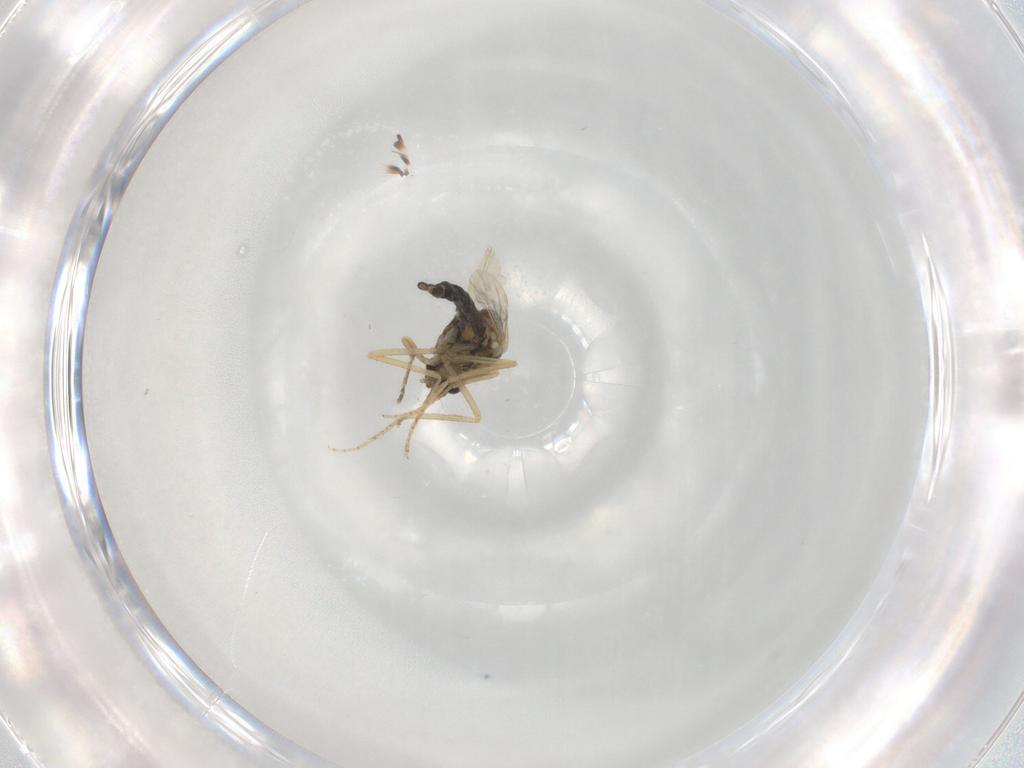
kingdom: Animalia
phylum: Arthropoda
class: Insecta
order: Diptera
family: Ceratopogonidae
